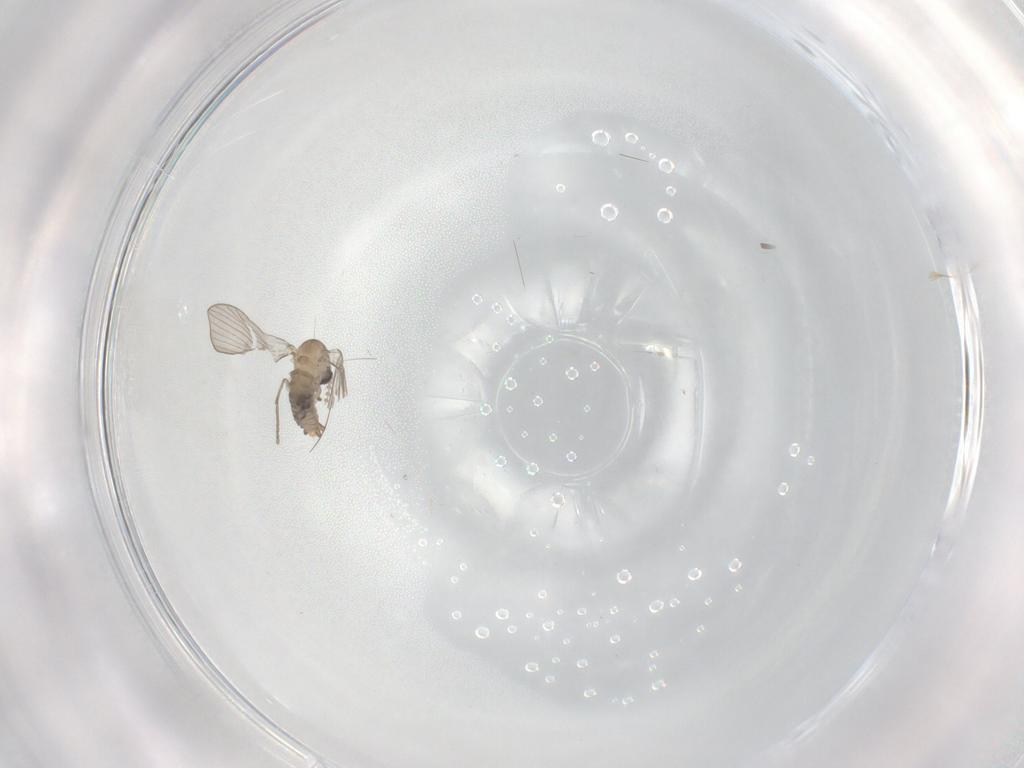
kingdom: Animalia
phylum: Arthropoda
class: Insecta
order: Diptera
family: Psychodidae
